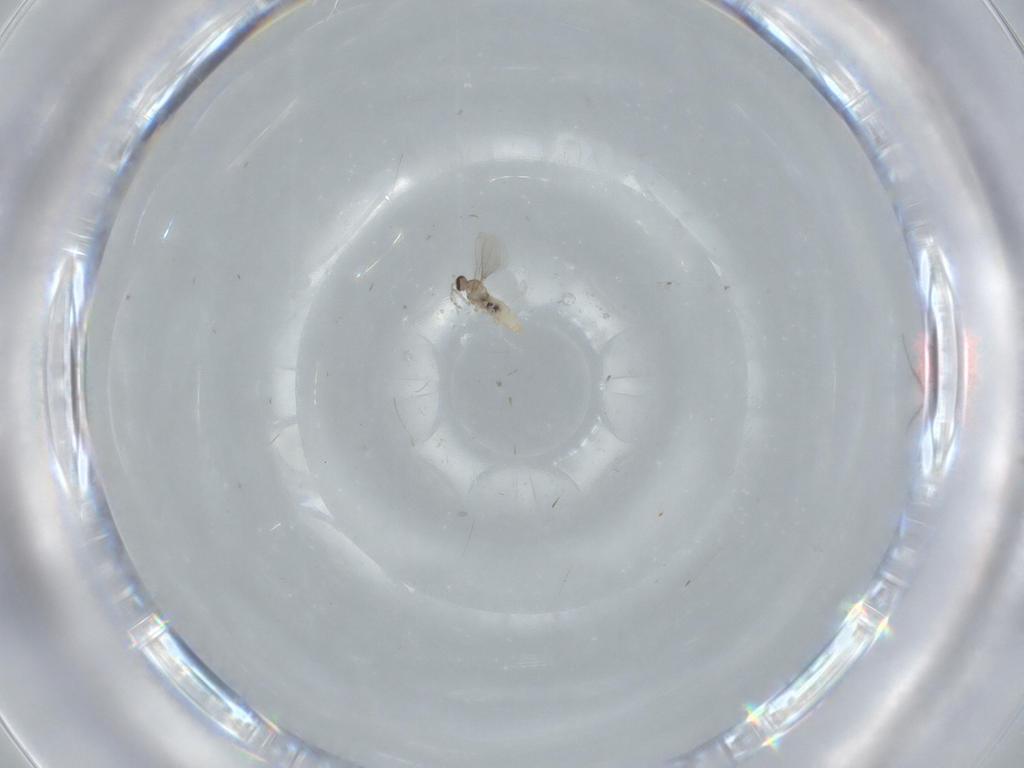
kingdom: Animalia
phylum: Arthropoda
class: Insecta
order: Diptera
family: Cecidomyiidae
